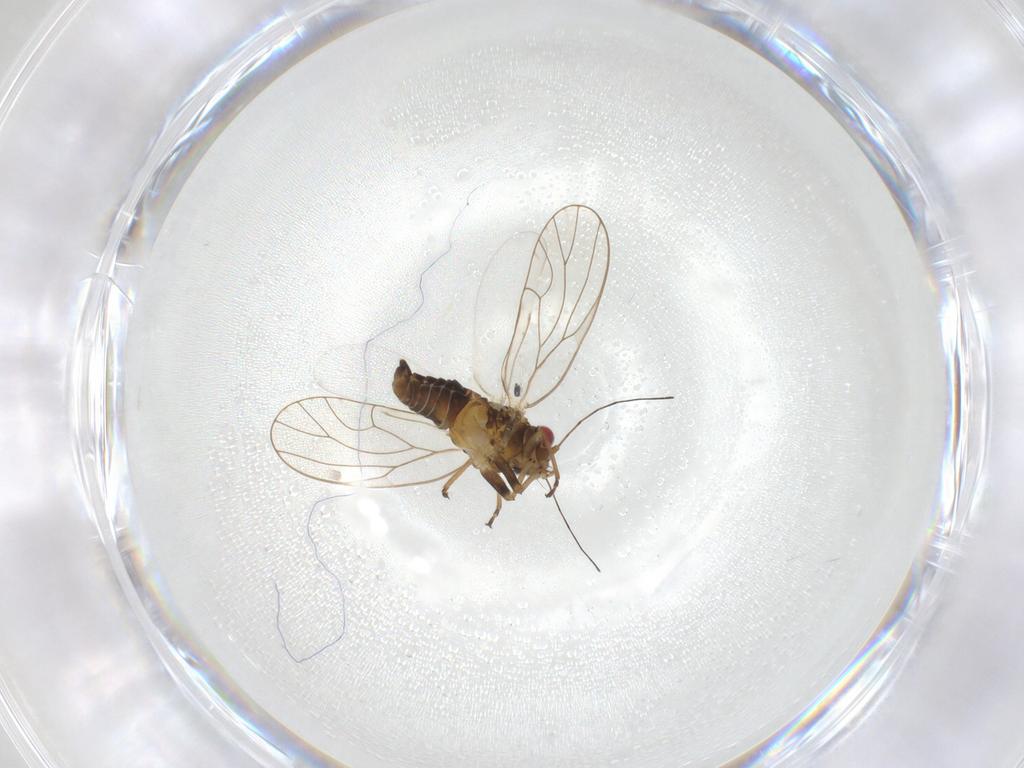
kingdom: Animalia
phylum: Arthropoda
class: Insecta
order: Hemiptera
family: Psyllidae
